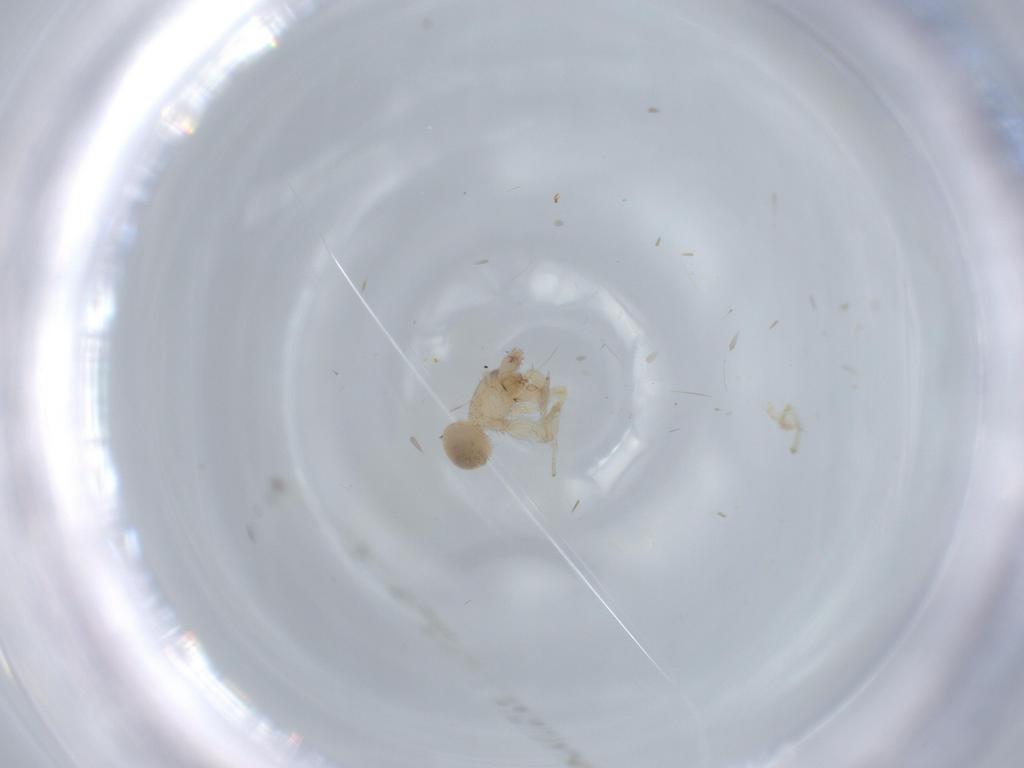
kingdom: Animalia
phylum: Arthropoda
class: Arachnida
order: Araneae
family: Oonopidae
